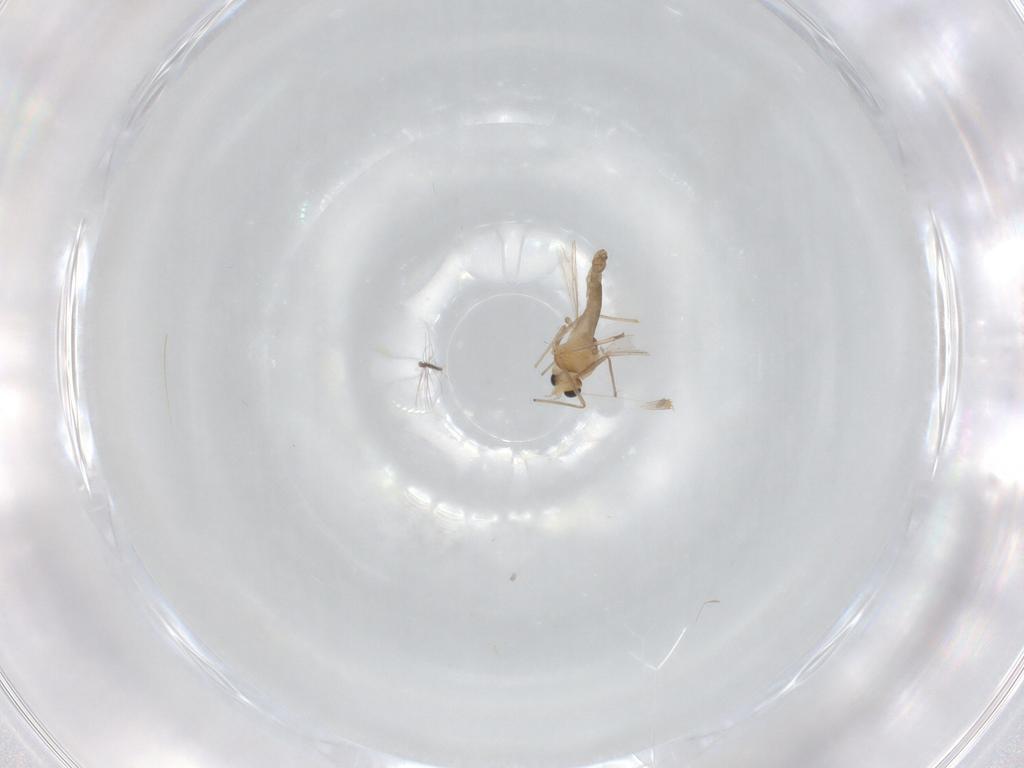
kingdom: Animalia
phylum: Arthropoda
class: Insecta
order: Diptera
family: Chironomidae
